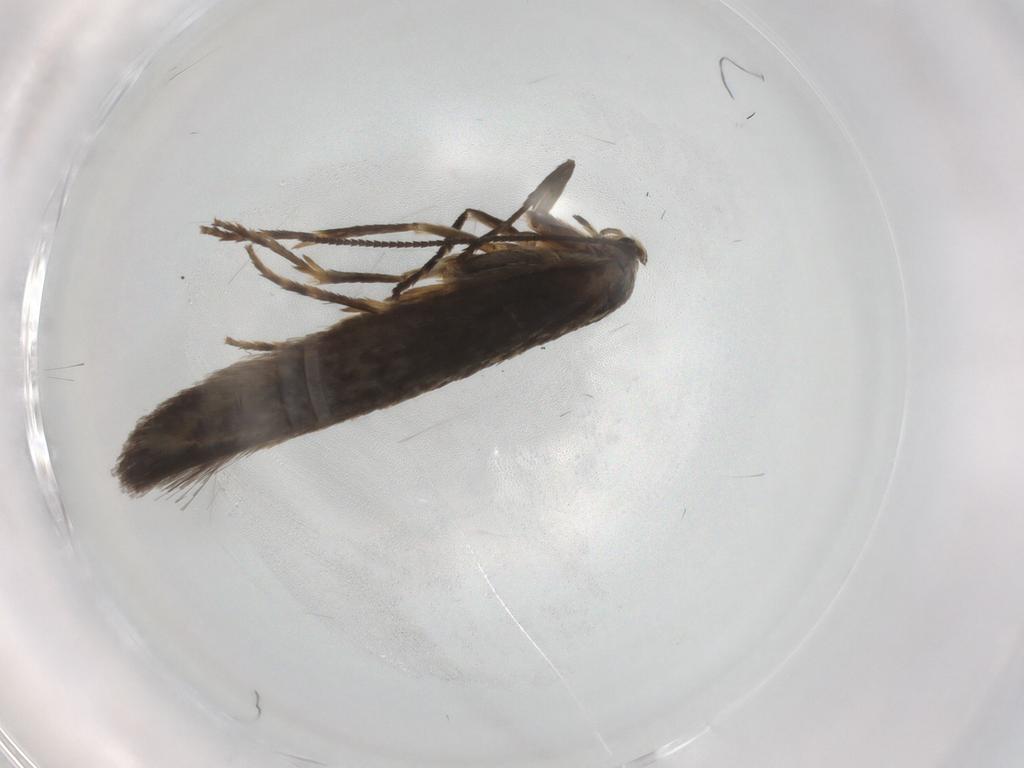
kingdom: Animalia
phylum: Arthropoda
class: Insecta
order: Lepidoptera
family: Nepticulidae
